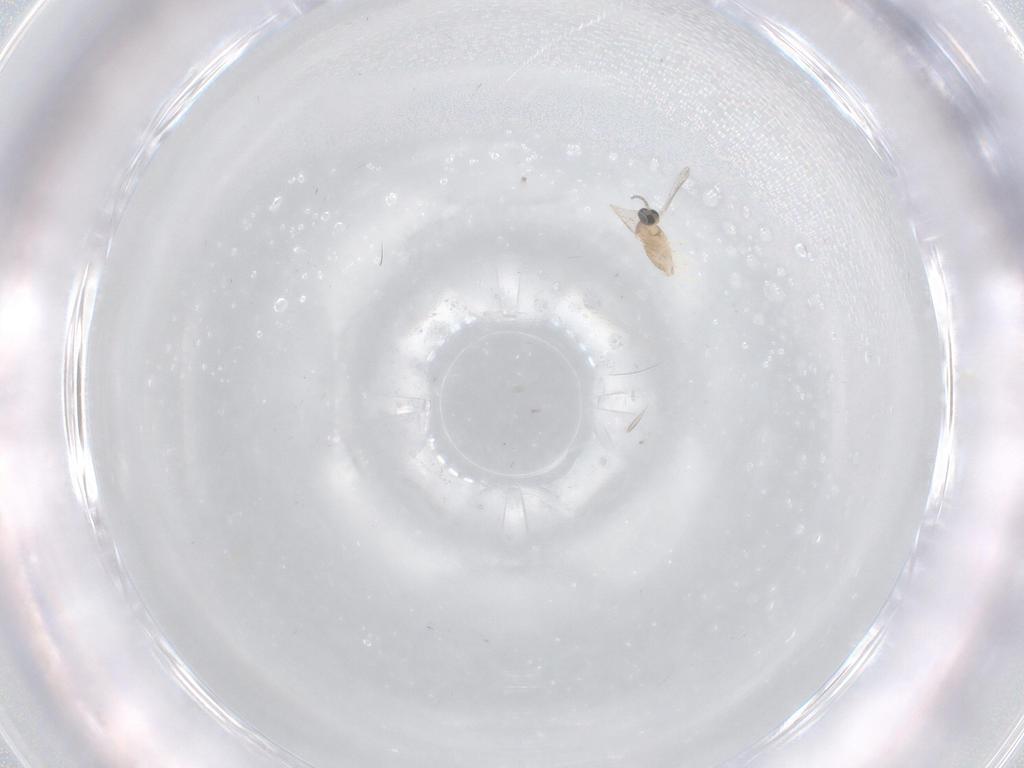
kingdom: Animalia
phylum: Arthropoda
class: Insecta
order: Diptera
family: Cecidomyiidae
